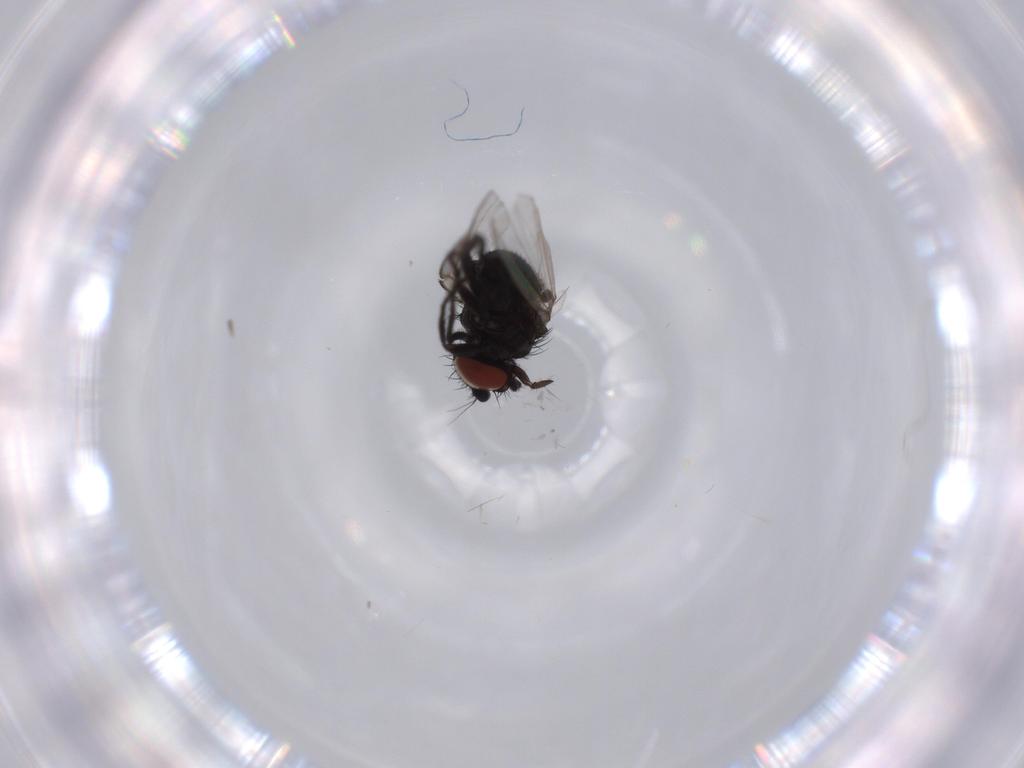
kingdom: Animalia
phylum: Arthropoda
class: Insecta
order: Diptera
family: Milichiidae
